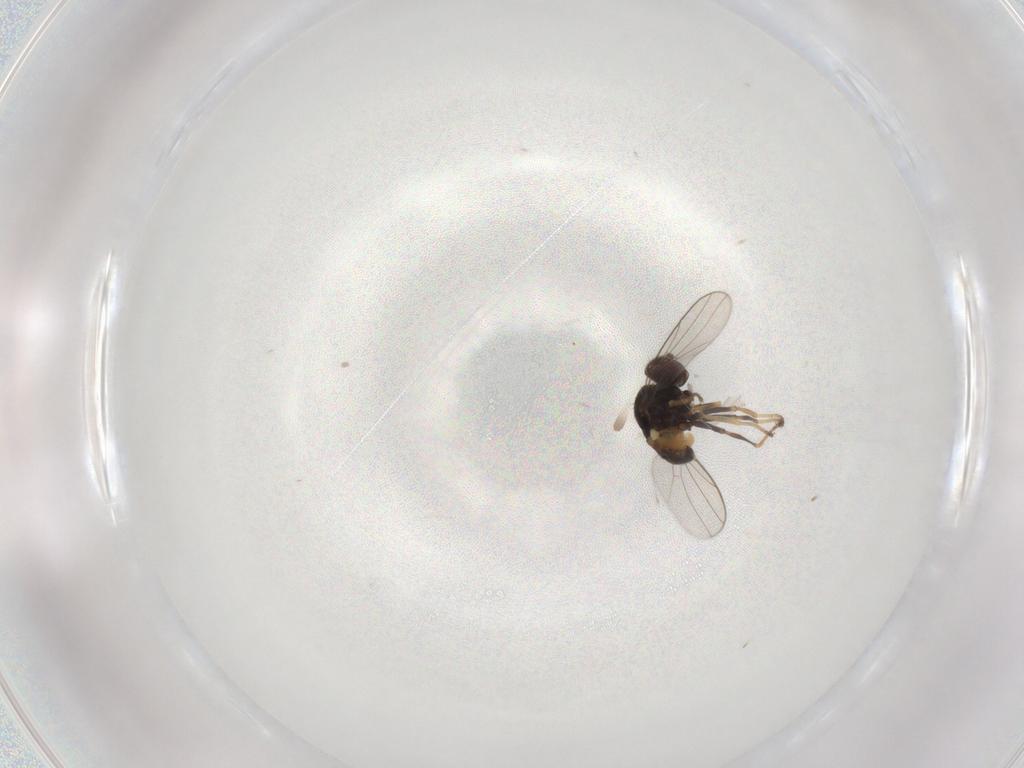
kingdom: Animalia
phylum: Arthropoda
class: Insecta
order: Diptera
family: Chloropidae
